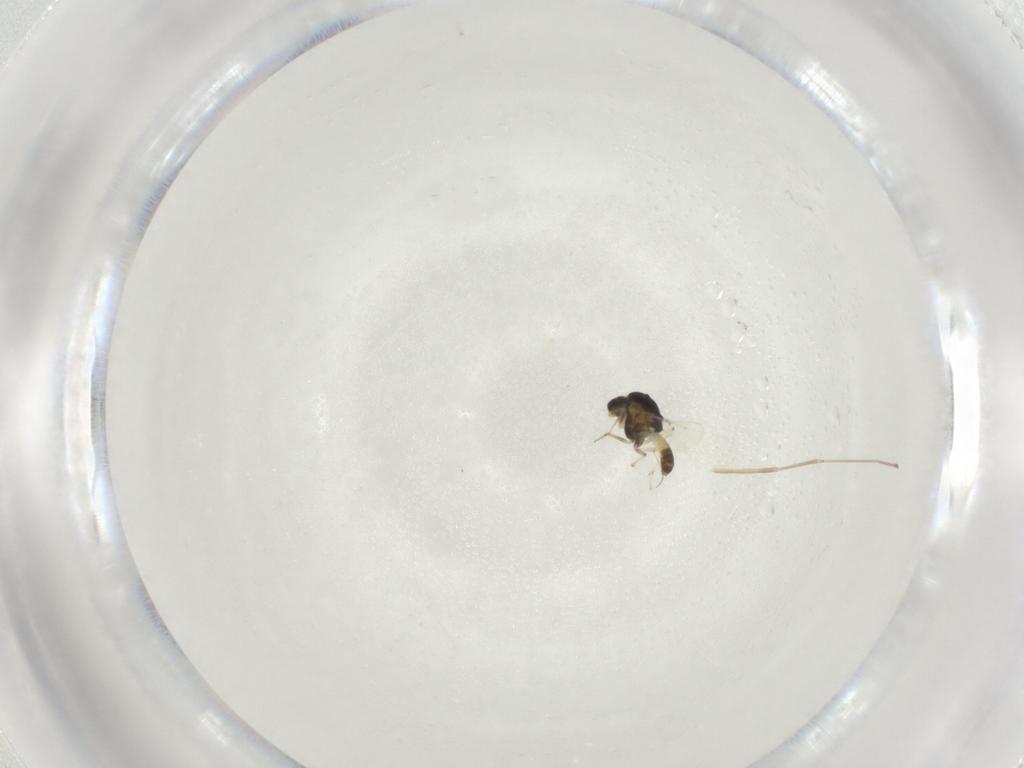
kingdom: Animalia
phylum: Arthropoda
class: Insecta
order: Diptera
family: Chironomidae
